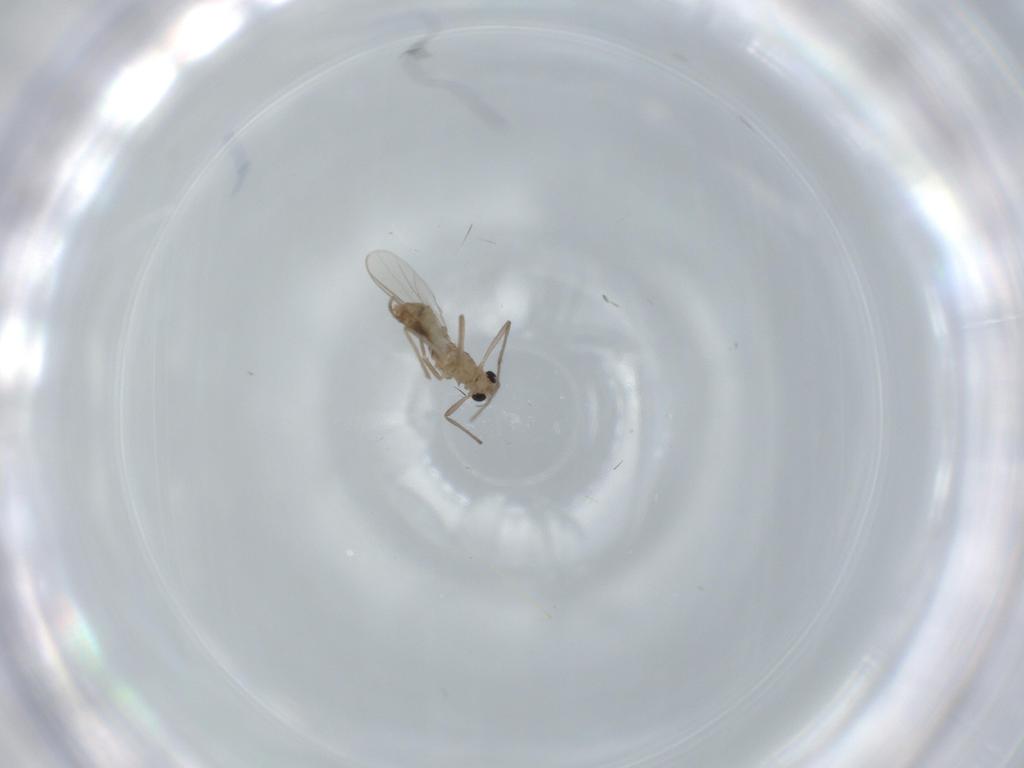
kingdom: Animalia
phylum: Arthropoda
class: Insecta
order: Diptera
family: Chironomidae
